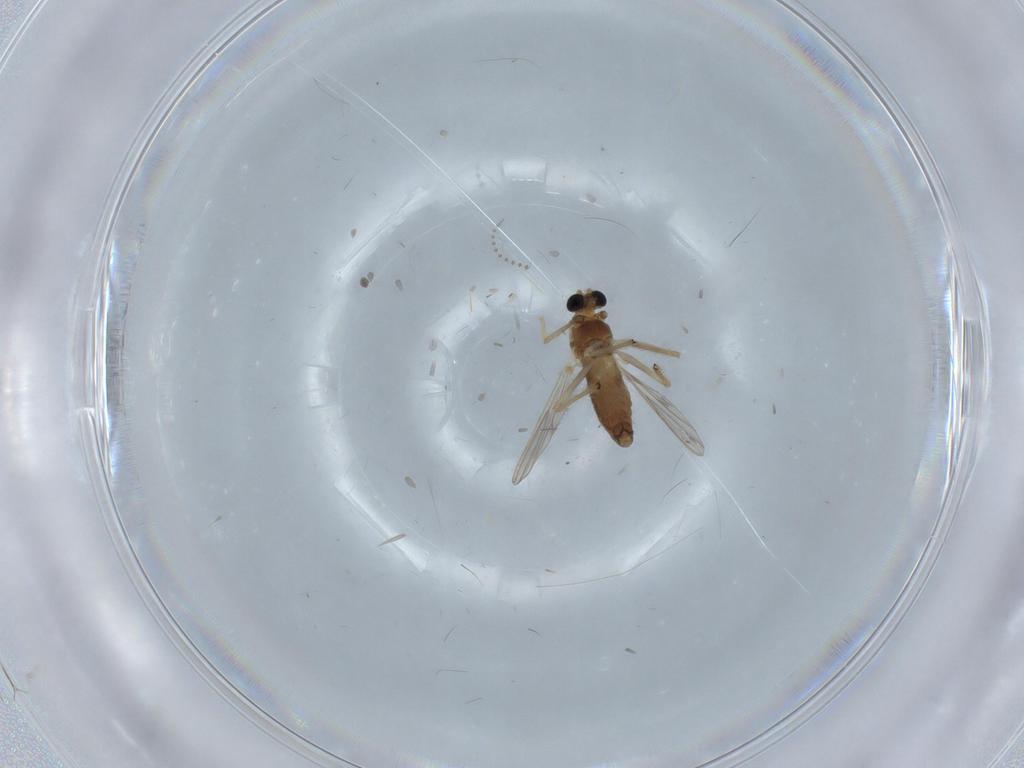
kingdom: Animalia
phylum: Arthropoda
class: Insecta
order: Diptera
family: Chironomidae
